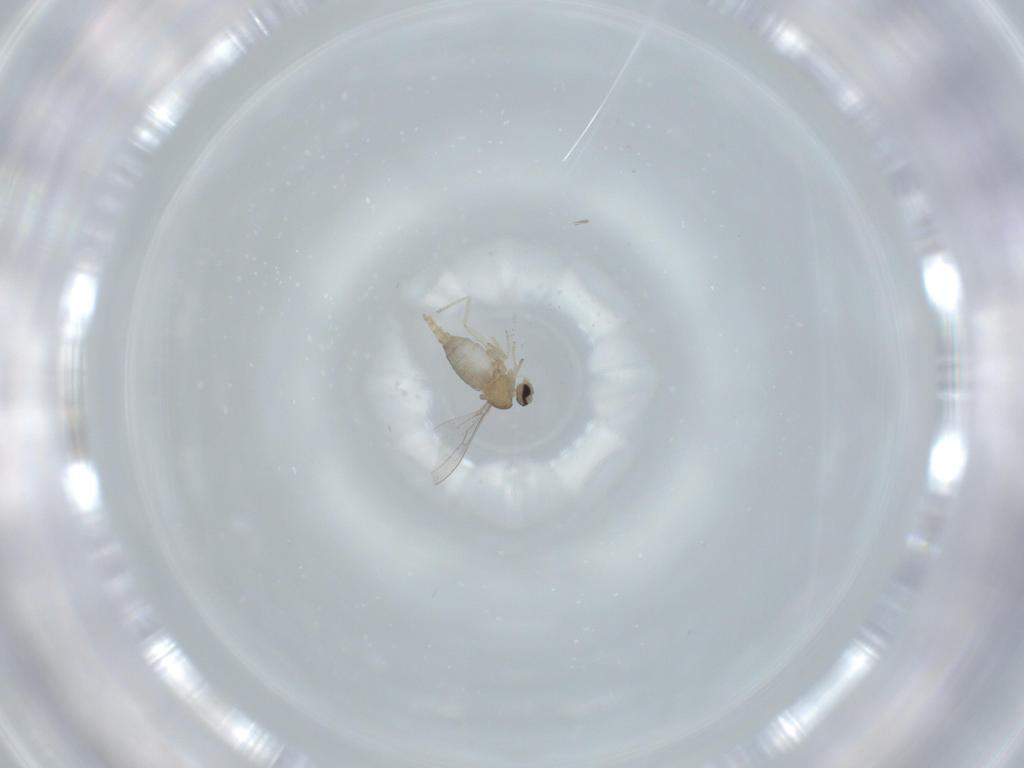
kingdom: Animalia
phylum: Arthropoda
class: Insecta
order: Diptera
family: Cecidomyiidae
